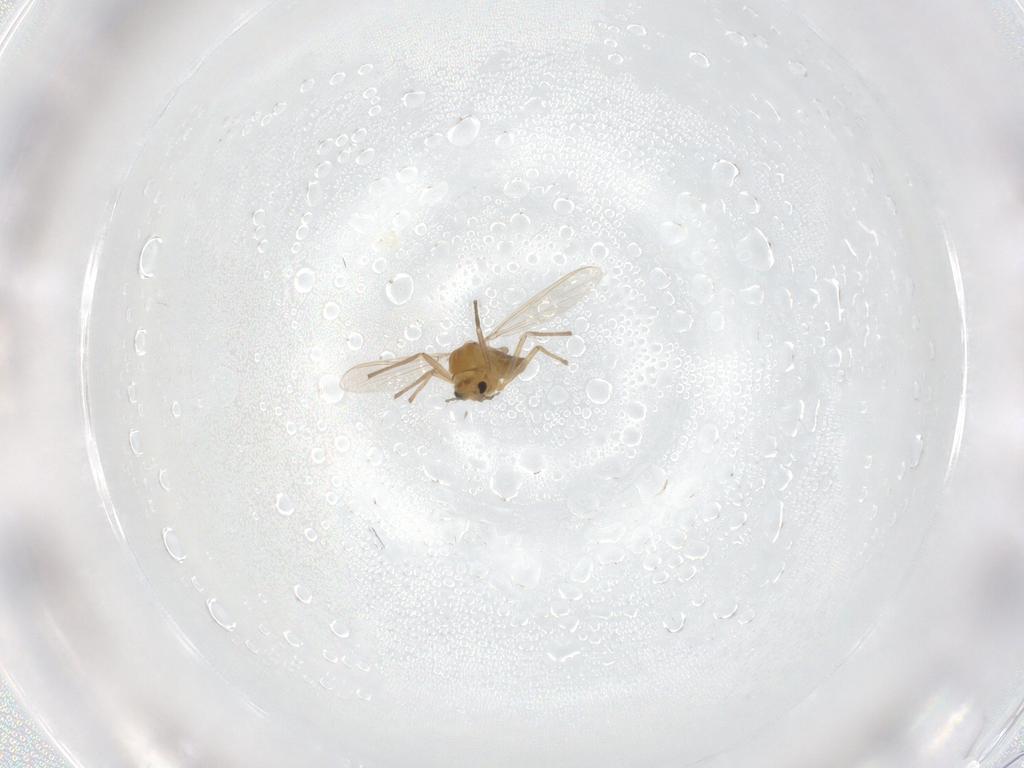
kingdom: Animalia
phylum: Arthropoda
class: Insecta
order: Diptera
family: Chironomidae
